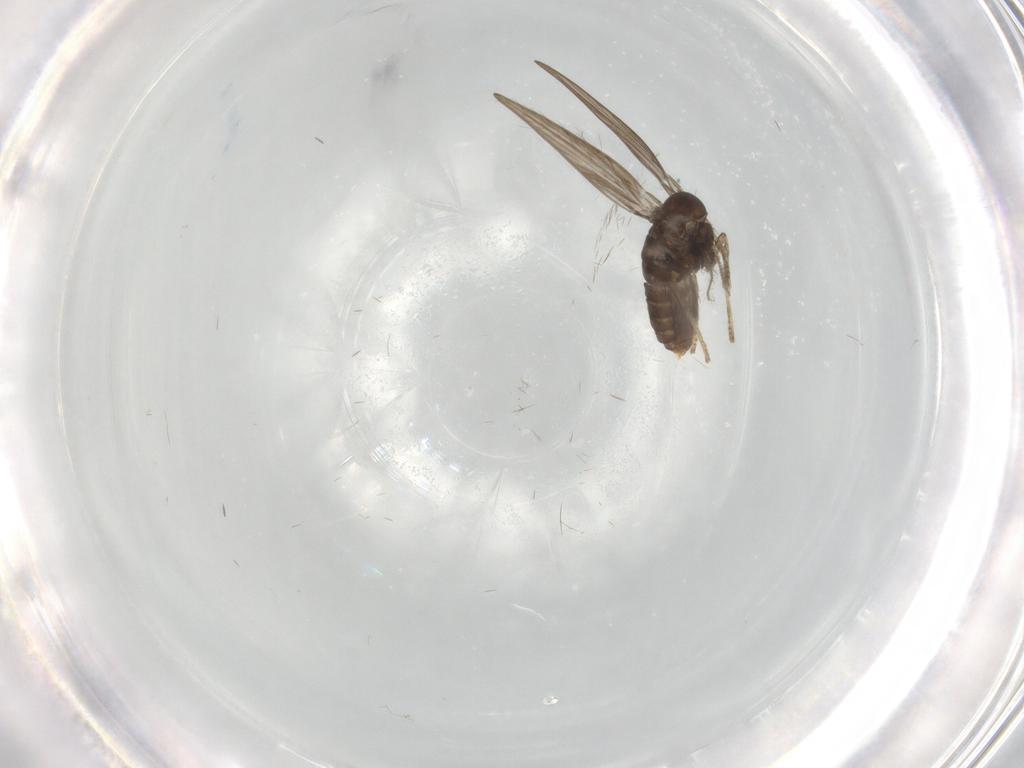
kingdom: Animalia
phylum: Arthropoda
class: Insecta
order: Diptera
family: Psychodidae
